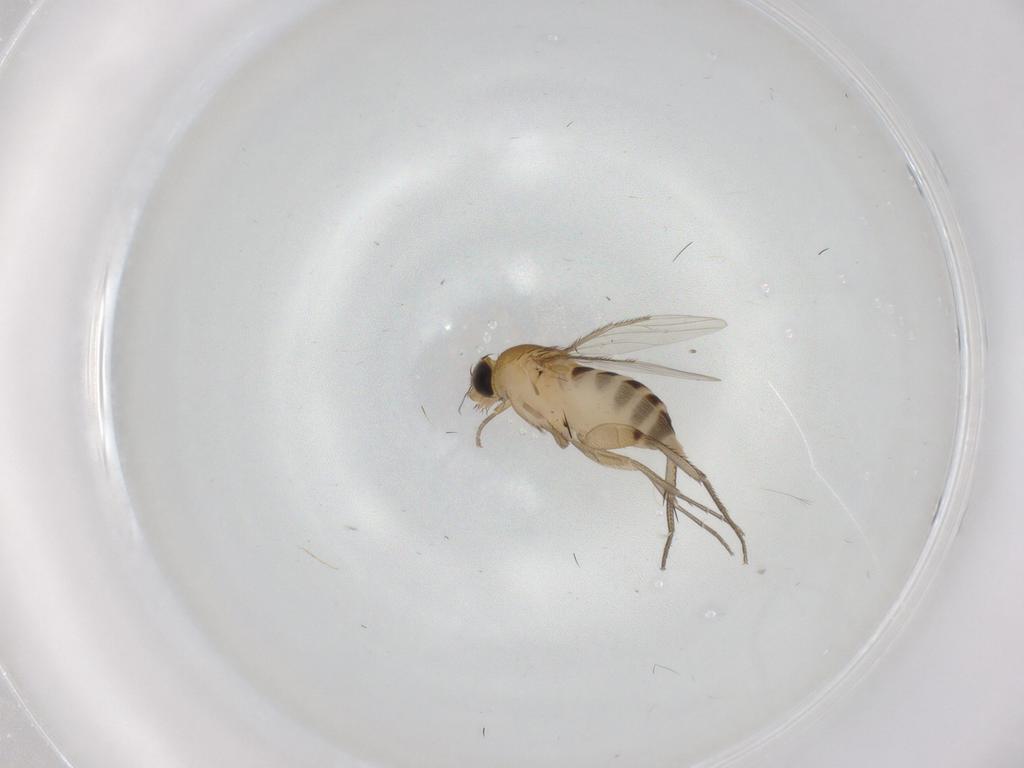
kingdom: Animalia
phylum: Arthropoda
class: Insecta
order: Diptera
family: Phoridae
